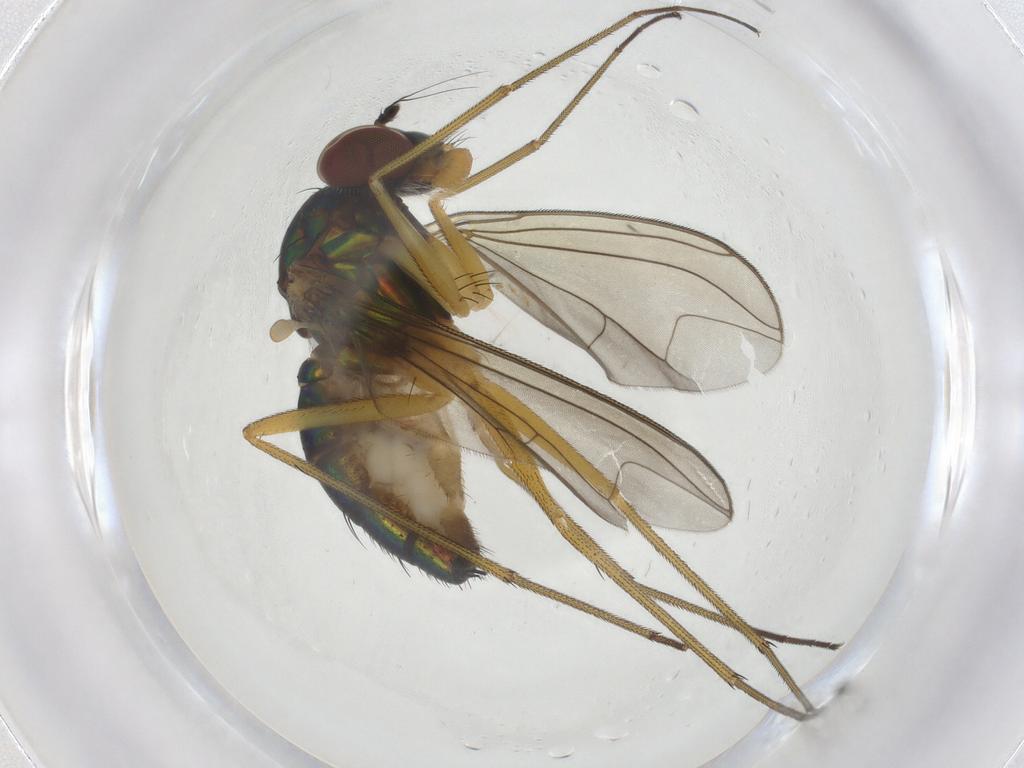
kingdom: Animalia
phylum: Arthropoda
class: Insecta
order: Diptera
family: Dolichopodidae
